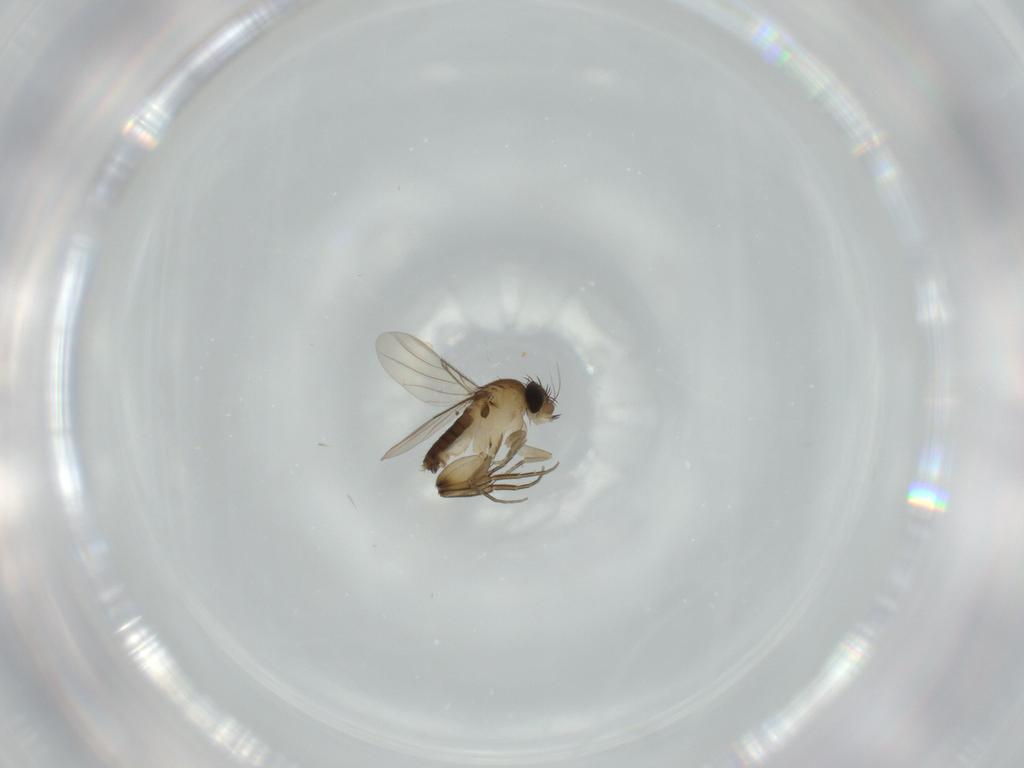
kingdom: Animalia
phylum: Arthropoda
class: Insecta
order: Diptera
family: Phoridae
